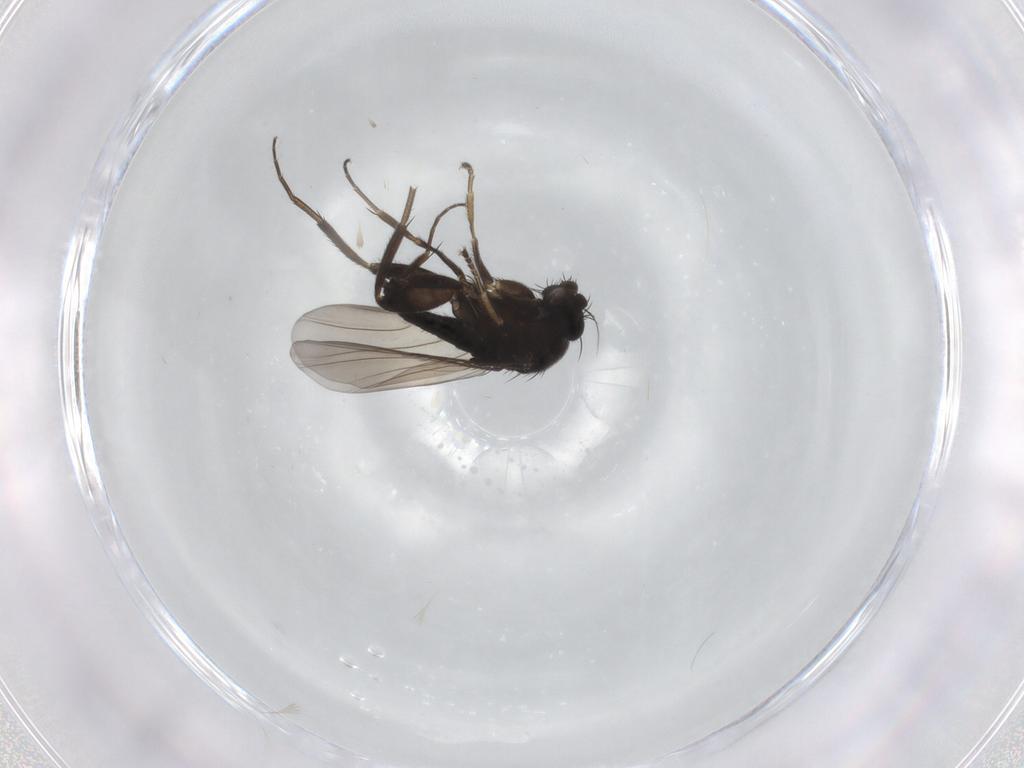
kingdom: Animalia
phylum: Arthropoda
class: Insecta
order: Diptera
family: Phoridae
